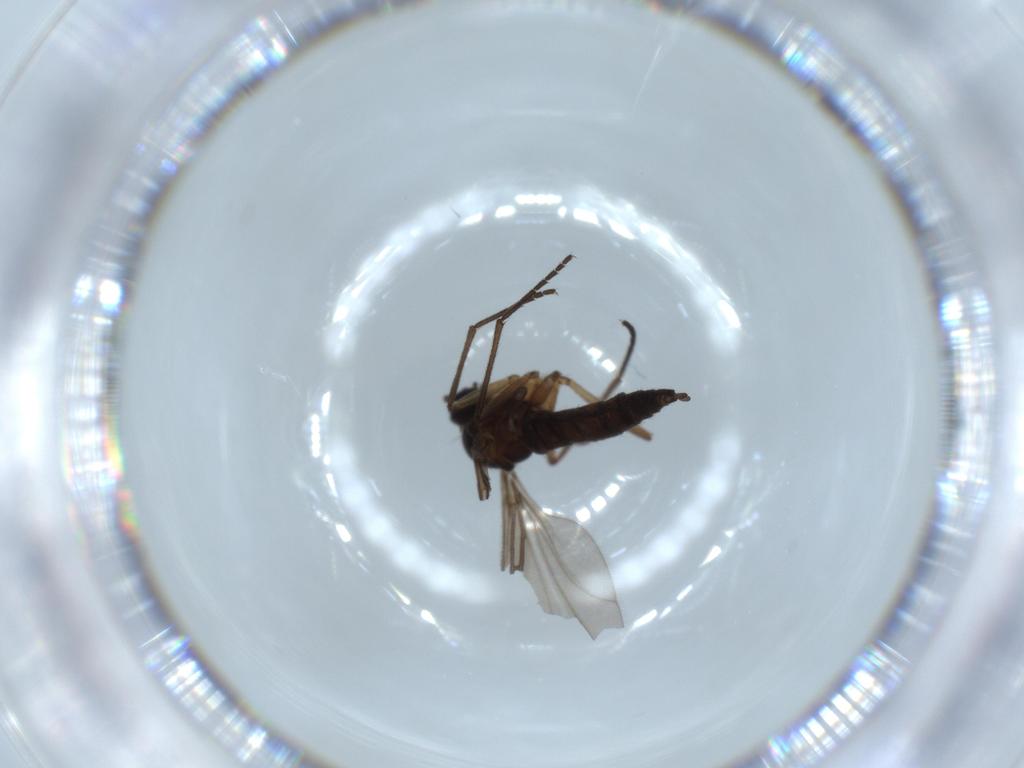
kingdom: Animalia
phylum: Arthropoda
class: Insecta
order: Diptera
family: Sciaridae
